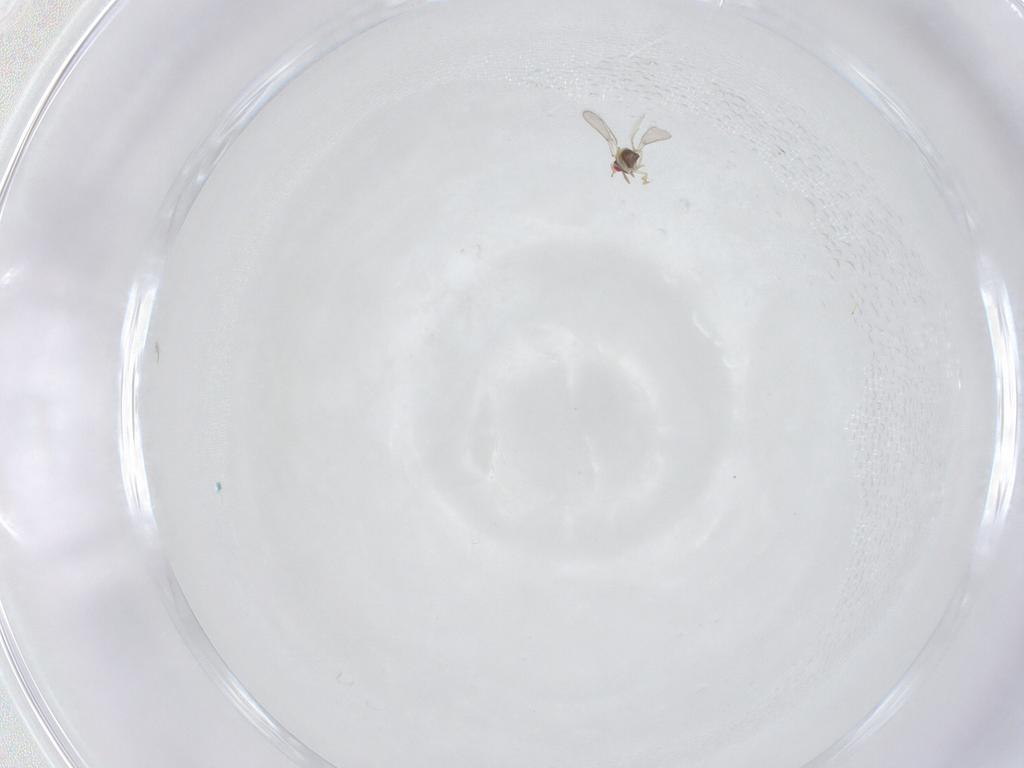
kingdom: Animalia
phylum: Arthropoda
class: Insecta
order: Hymenoptera
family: Aphelinidae
